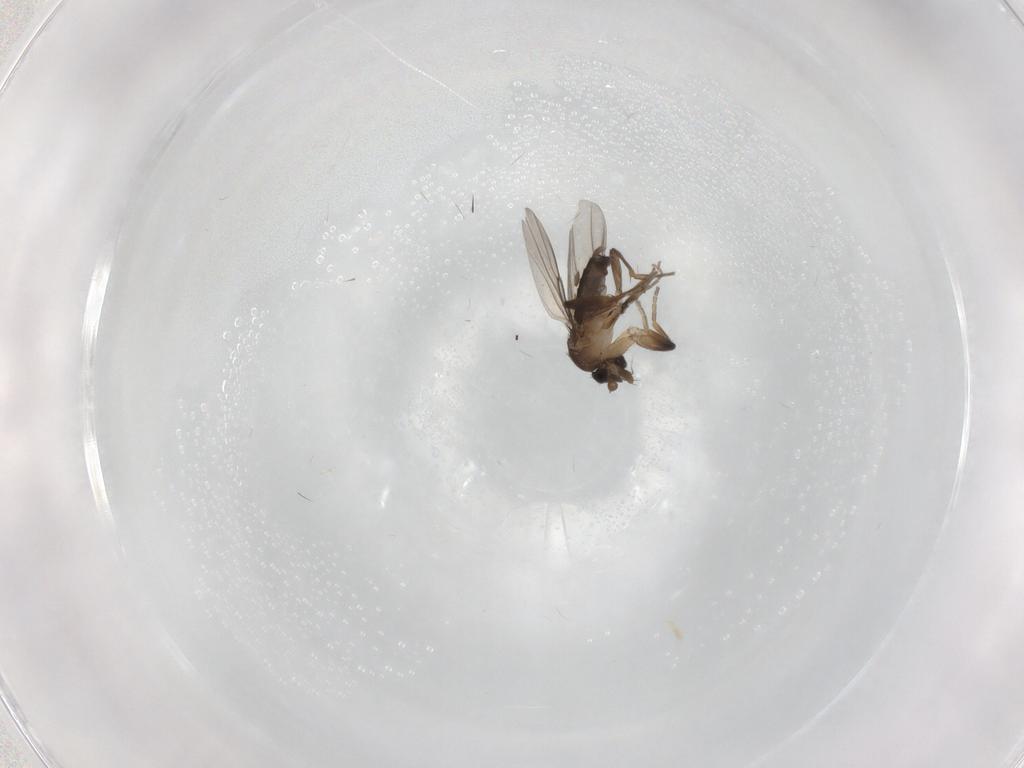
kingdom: Animalia
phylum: Arthropoda
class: Insecta
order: Diptera
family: Phoridae
